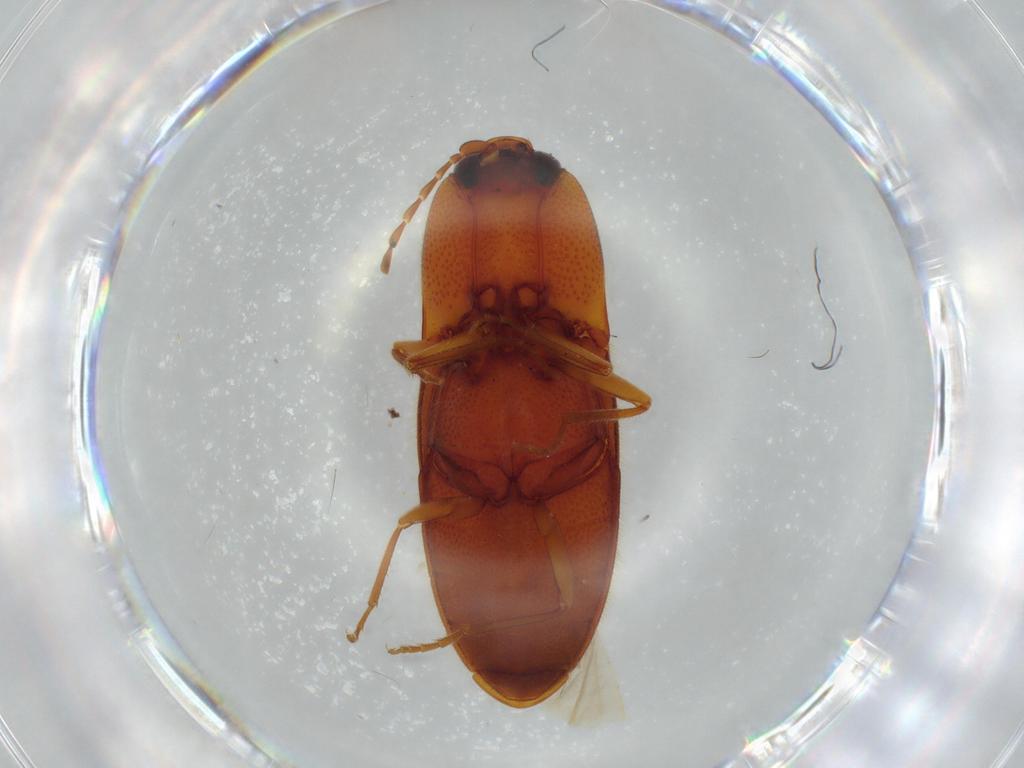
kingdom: Animalia
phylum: Arthropoda
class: Insecta
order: Coleoptera
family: Elateridae
